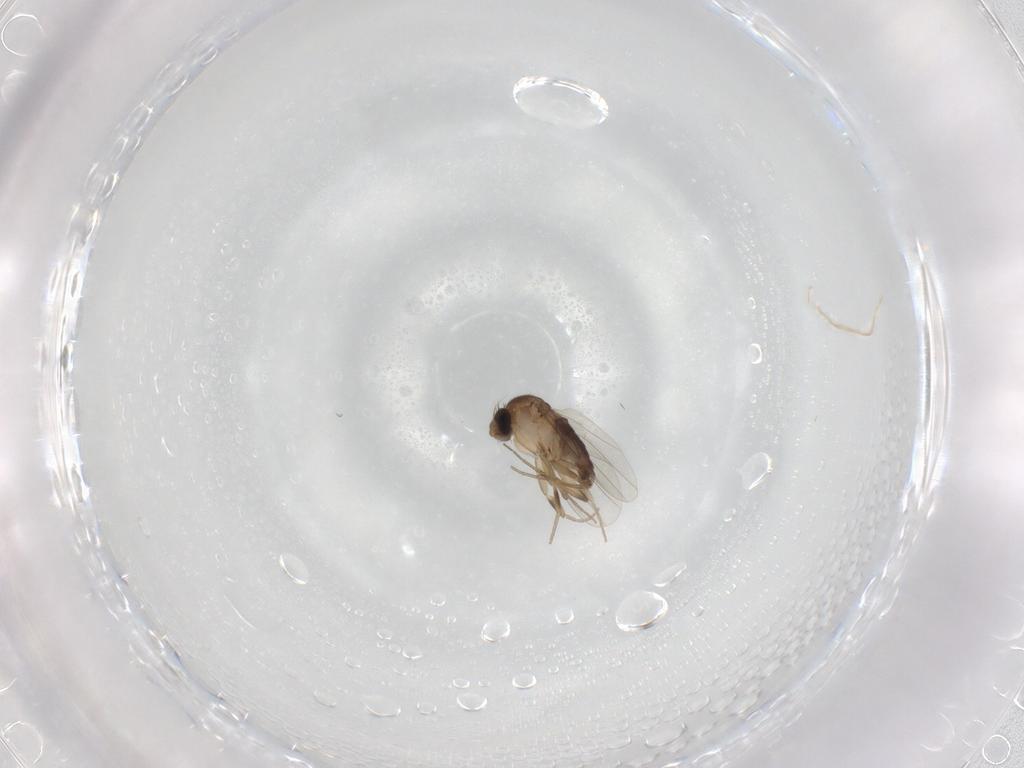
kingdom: Animalia
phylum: Arthropoda
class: Insecta
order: Diptera
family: Phoridae
